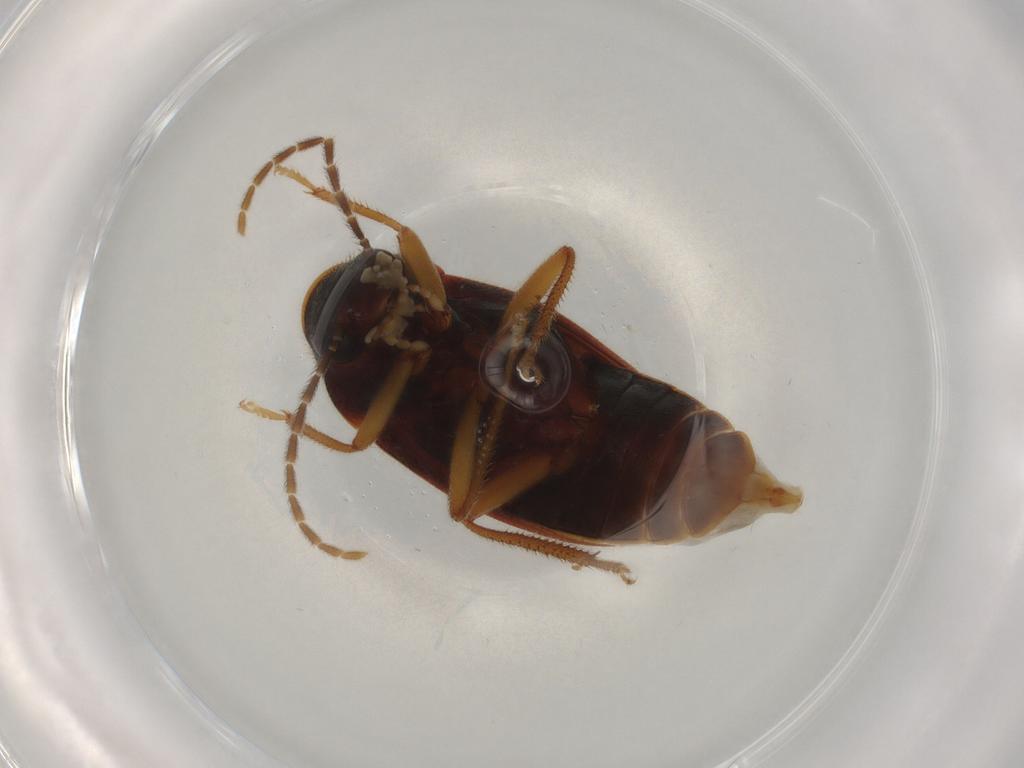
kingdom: Animalia
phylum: Arthropoda
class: Insecta
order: Coleoptera
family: Ptilodactylidae
